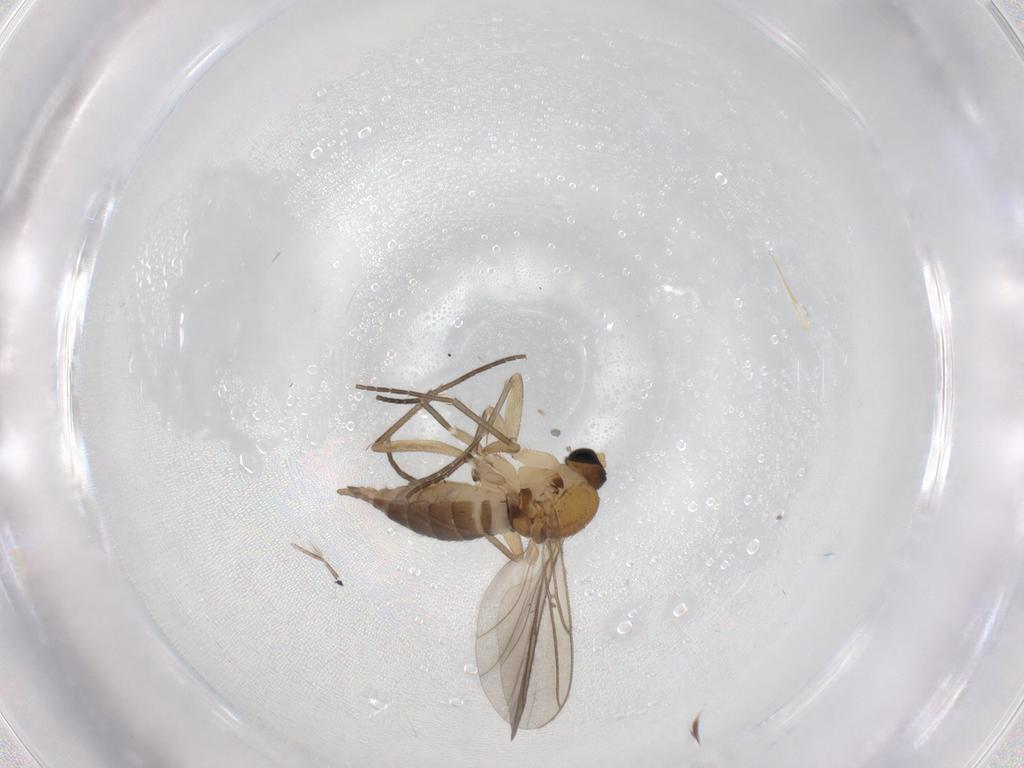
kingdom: Animalia
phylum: Arthropoda
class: Insecta
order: Diptera
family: Sciaridae
